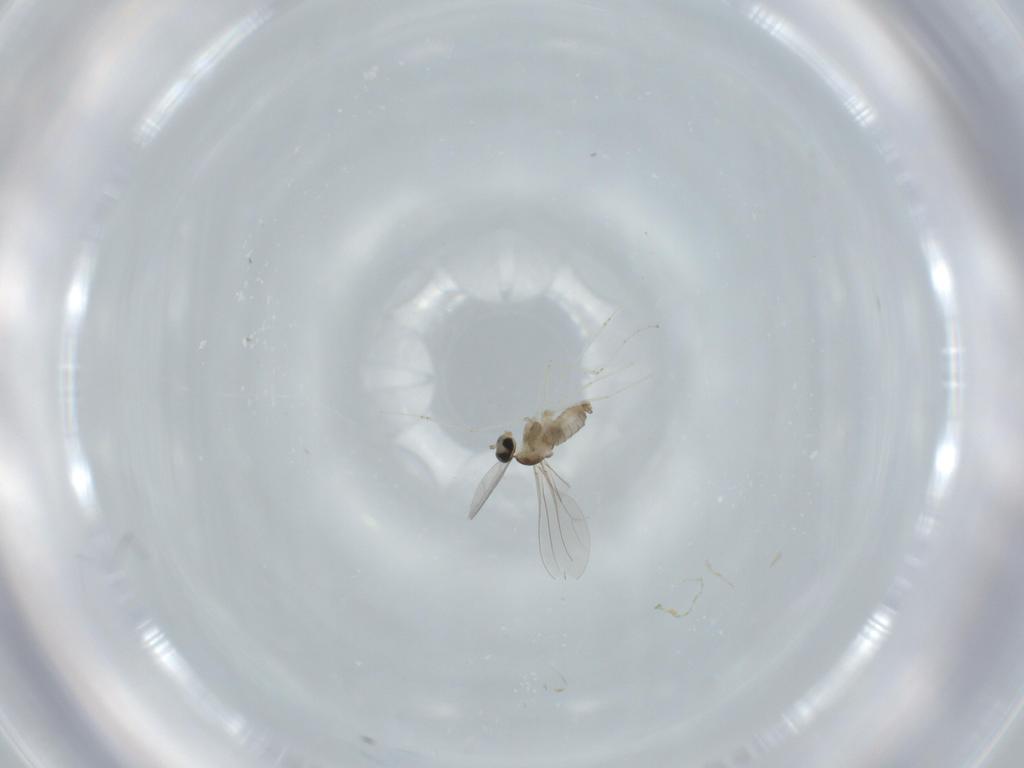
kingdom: Animalia
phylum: Arthropoda
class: Insecta
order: Diptera
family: Cecidomyiidae
